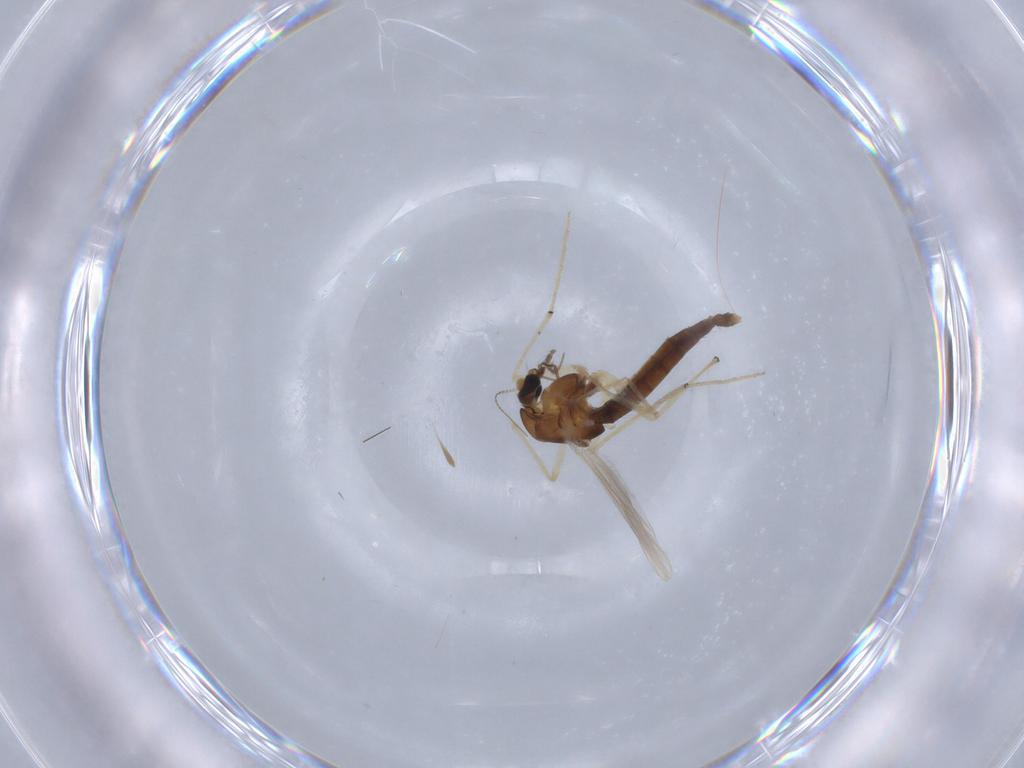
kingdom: Animalia
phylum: Arthropoda
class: Insecta
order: Diptera
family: Chironomidae
